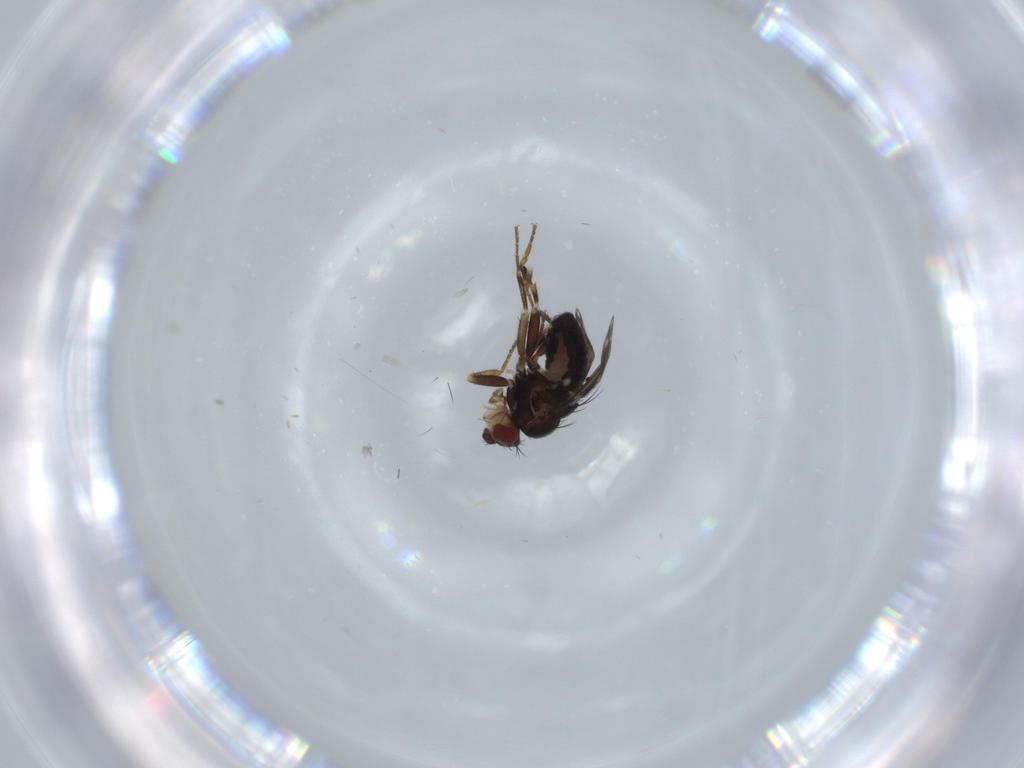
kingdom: Animalia
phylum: Arthropoda
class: Insecta
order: Diptera
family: Sphaeroceridae
